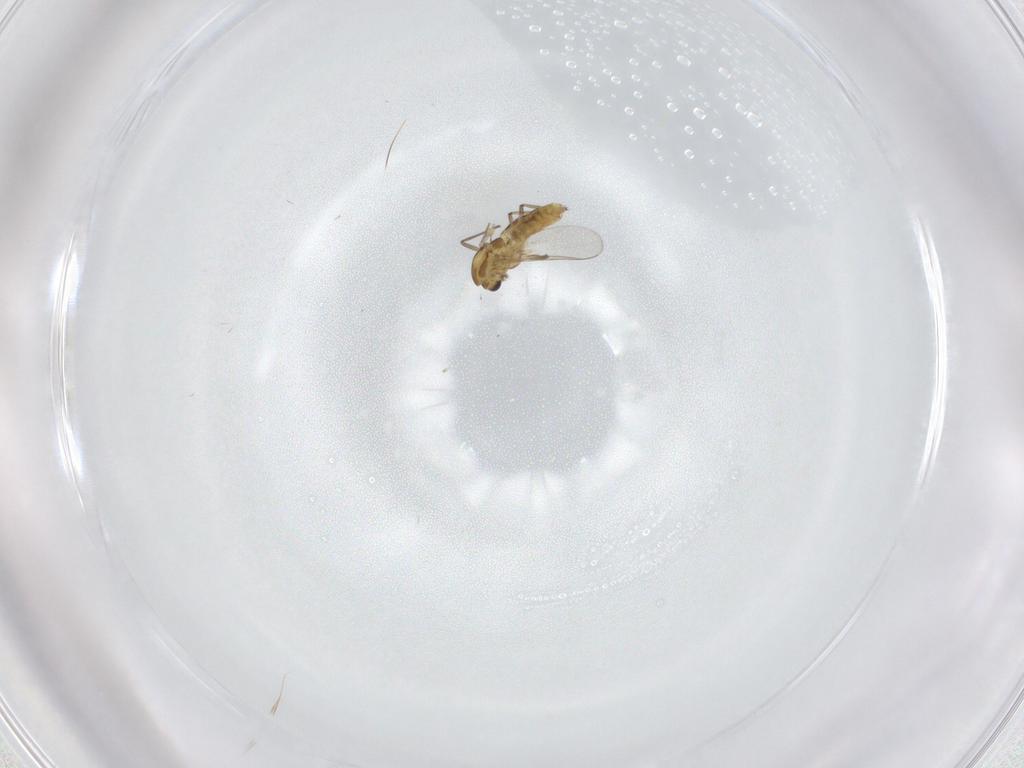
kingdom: Animalia
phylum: Arthropoda
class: Insecta
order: Diptera
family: Chironomidae
